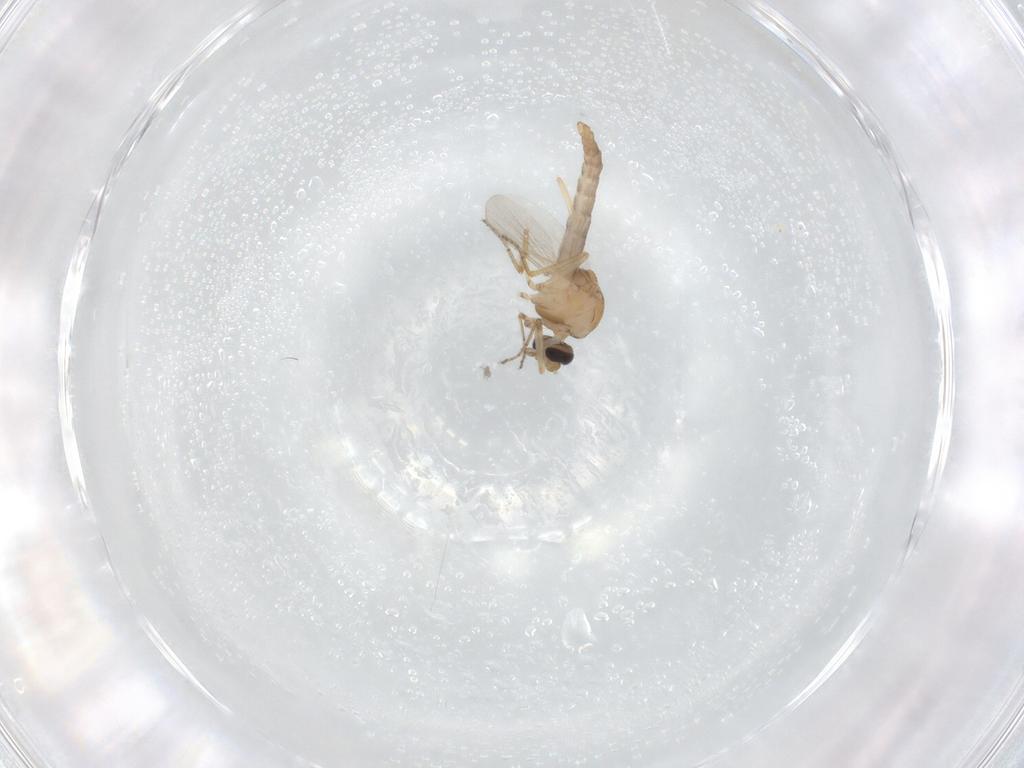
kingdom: Animalia
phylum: Arthropoda
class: Insecta
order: Diptera
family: Ceratopogonidae
